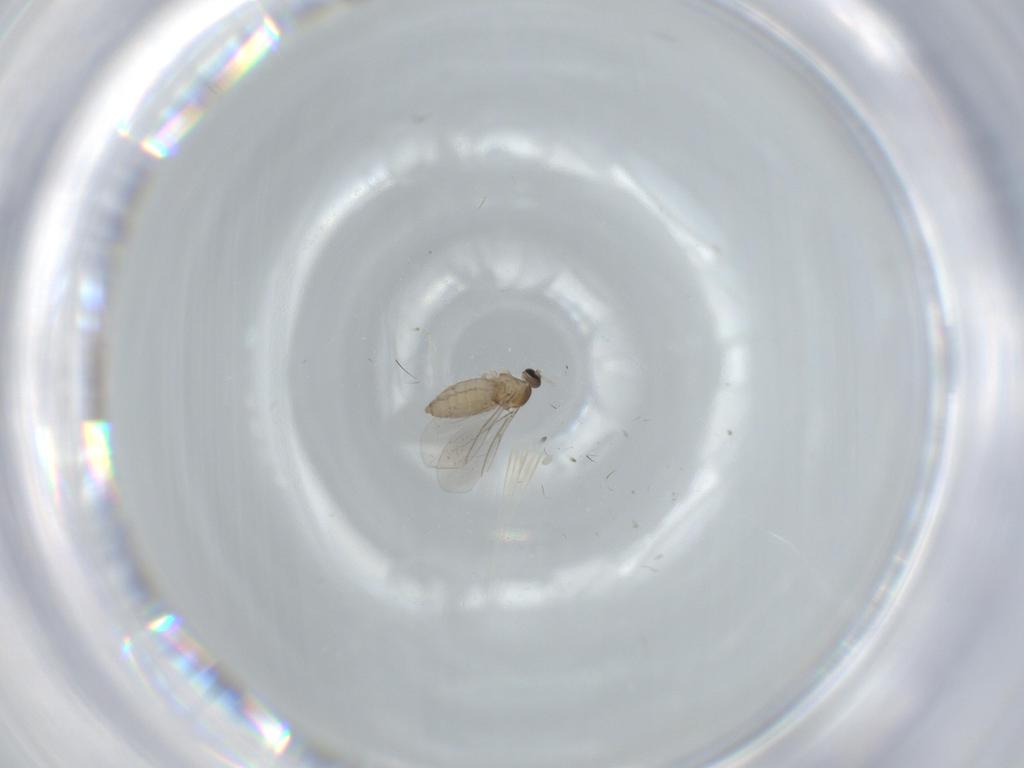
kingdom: Animalia
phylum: Arthropoda
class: Insecta
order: Diptera
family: Cecidomyiidae
